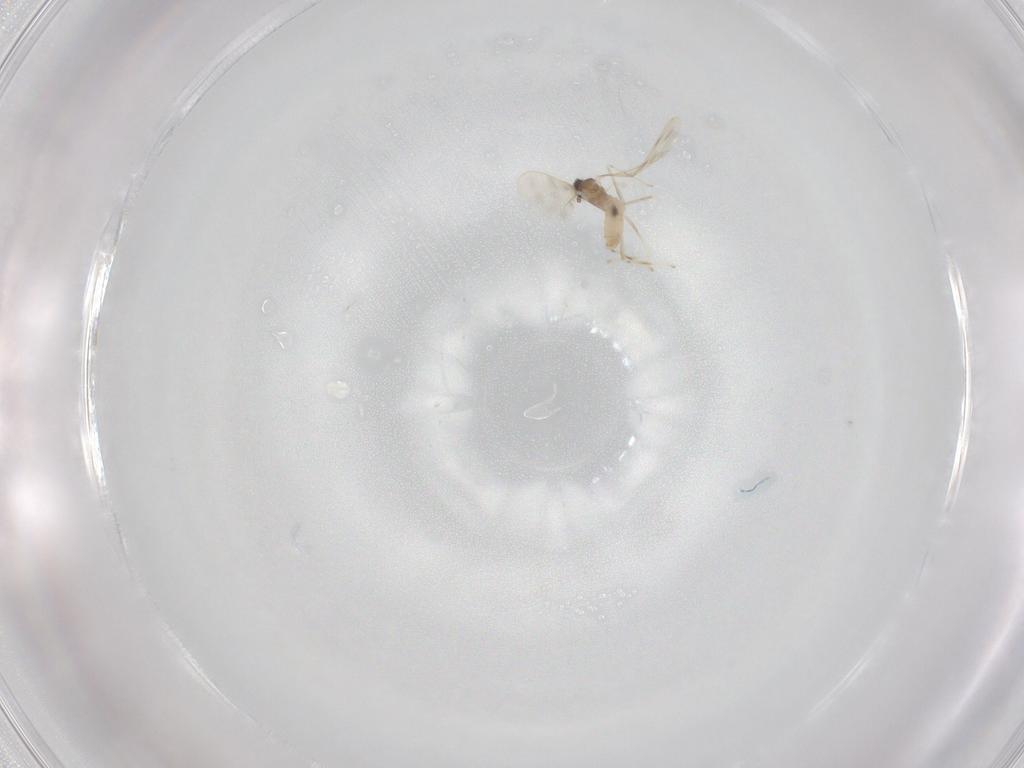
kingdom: Animalia
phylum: Arthropoda
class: Insecta
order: Diptera
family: Cecidomyiidae
